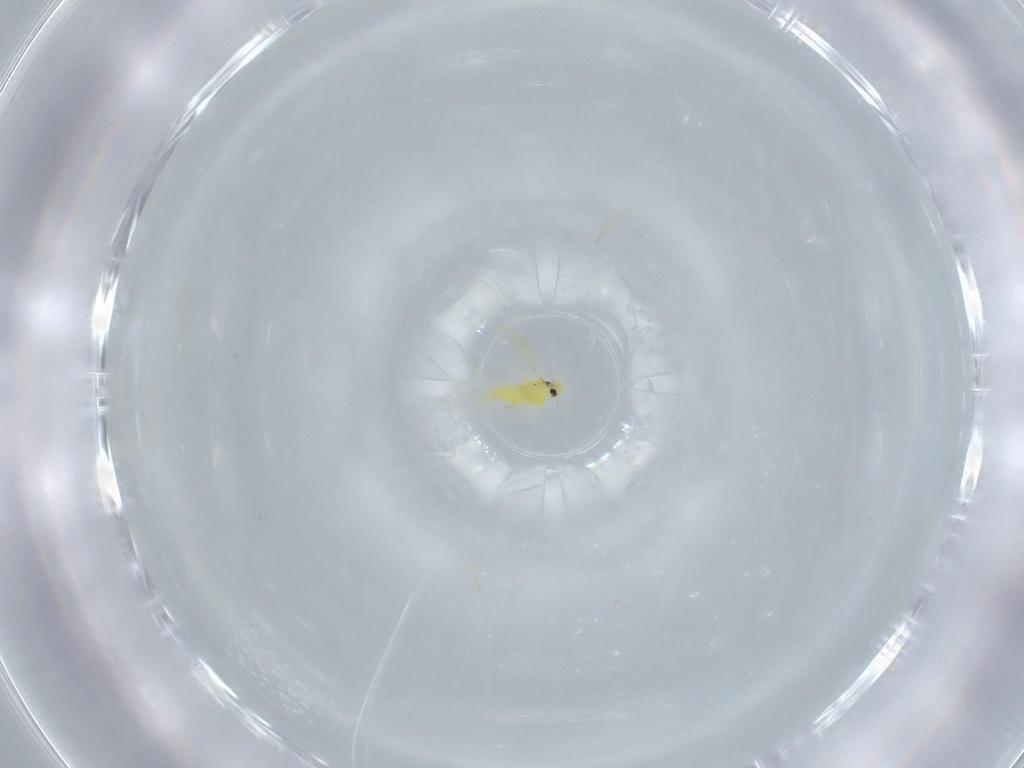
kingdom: Animalia
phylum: Arthropoda
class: Insecta
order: Hemiptera
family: Aleyrodidae
